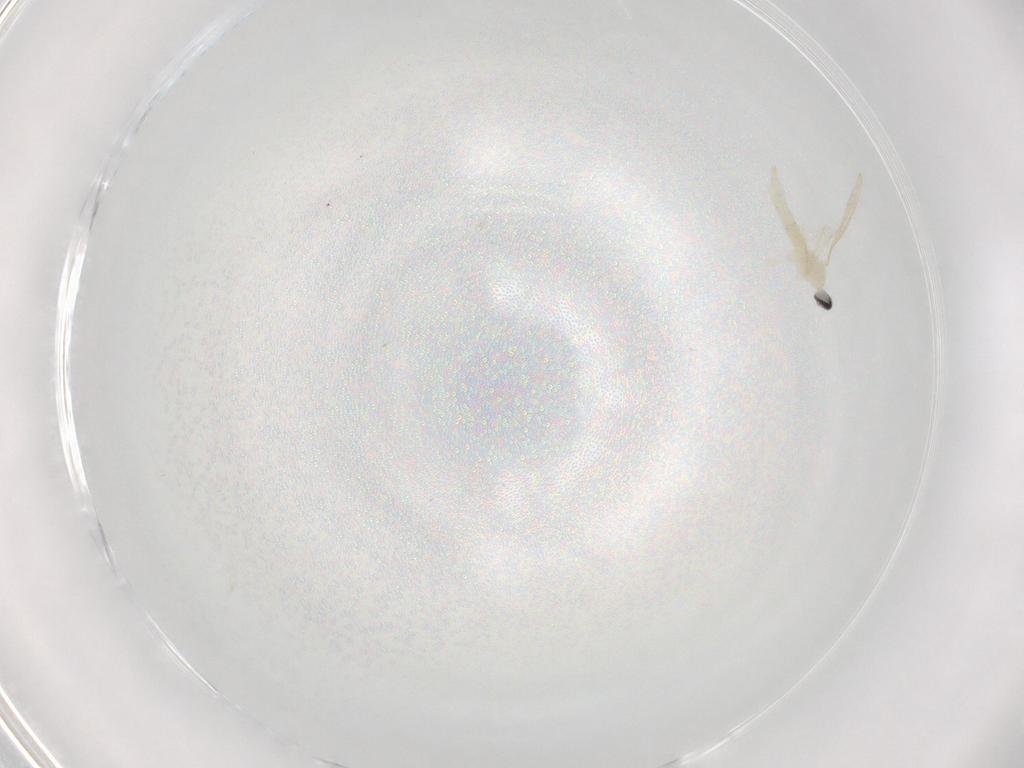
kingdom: Animalia
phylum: Arthropoda
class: Insecta
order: Diptera
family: Cecidomyiidae
